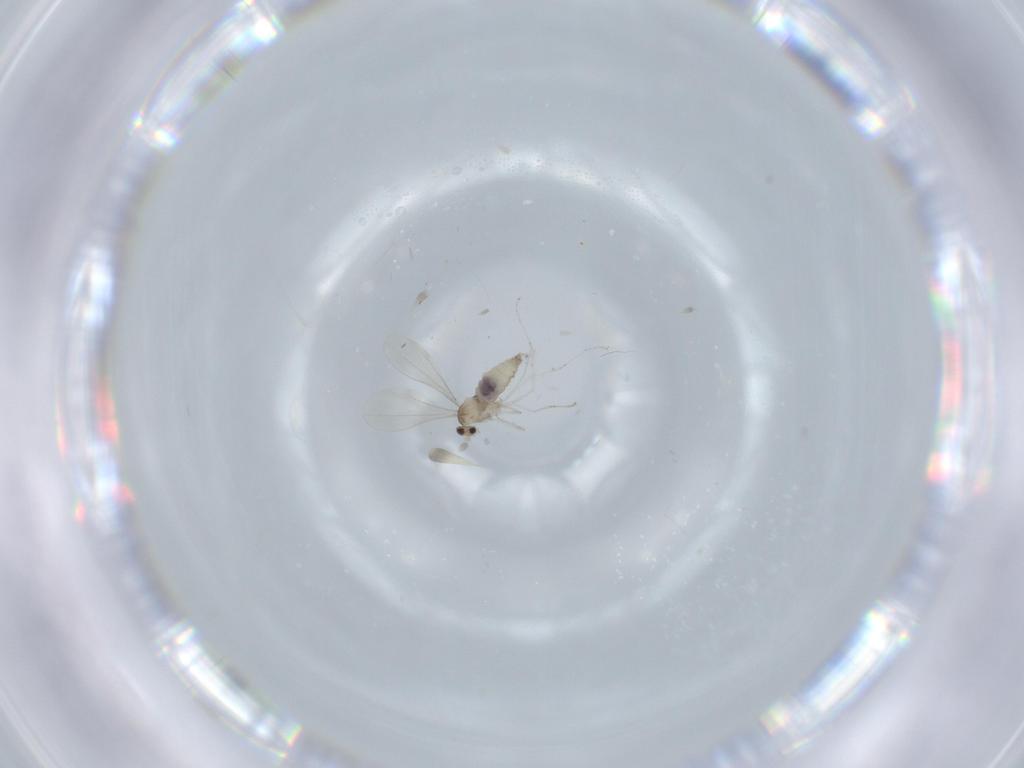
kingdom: Animalia
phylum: Arthropoda
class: Insecta
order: Diptera
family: Cecidomyiidae
